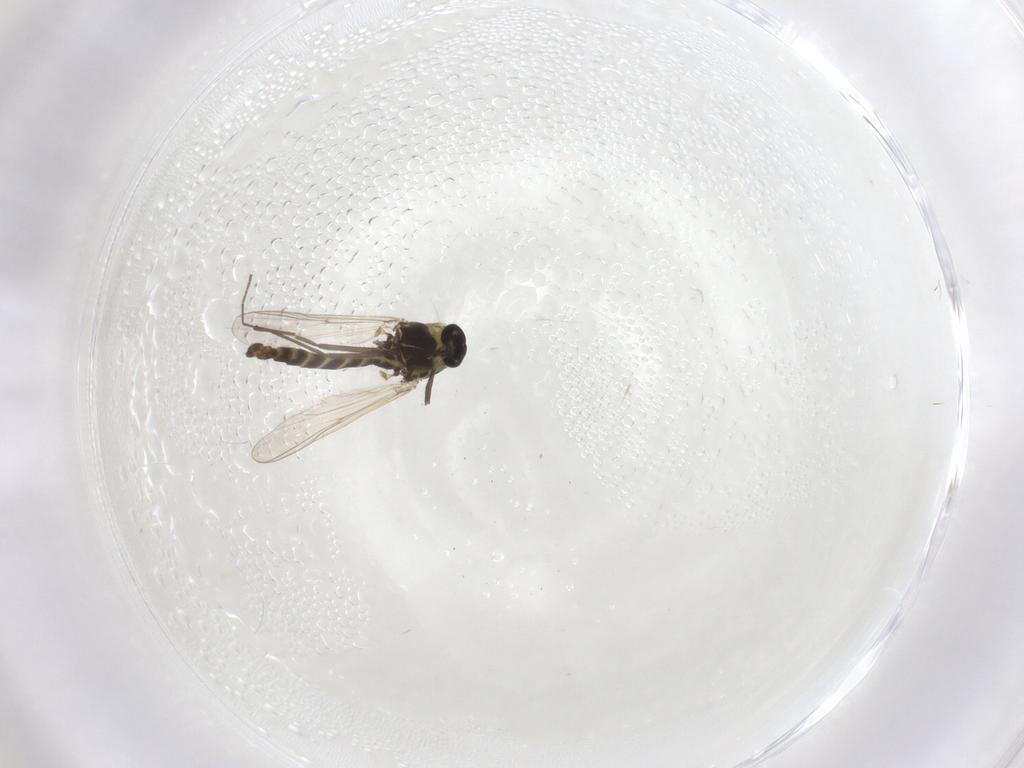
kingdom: Animalia
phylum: Arthropoda
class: Insecta
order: Diptera
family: Chironomidae
